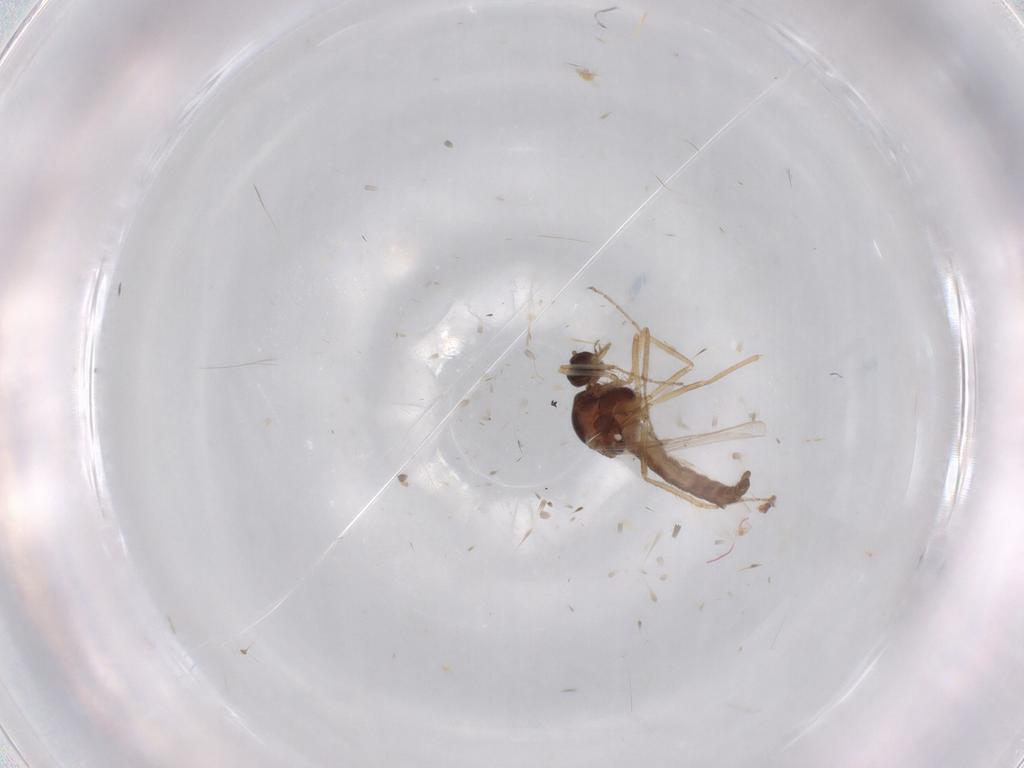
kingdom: Animalia
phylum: Arthropoda
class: Insecta
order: Diptera
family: Ceratopogonidae
